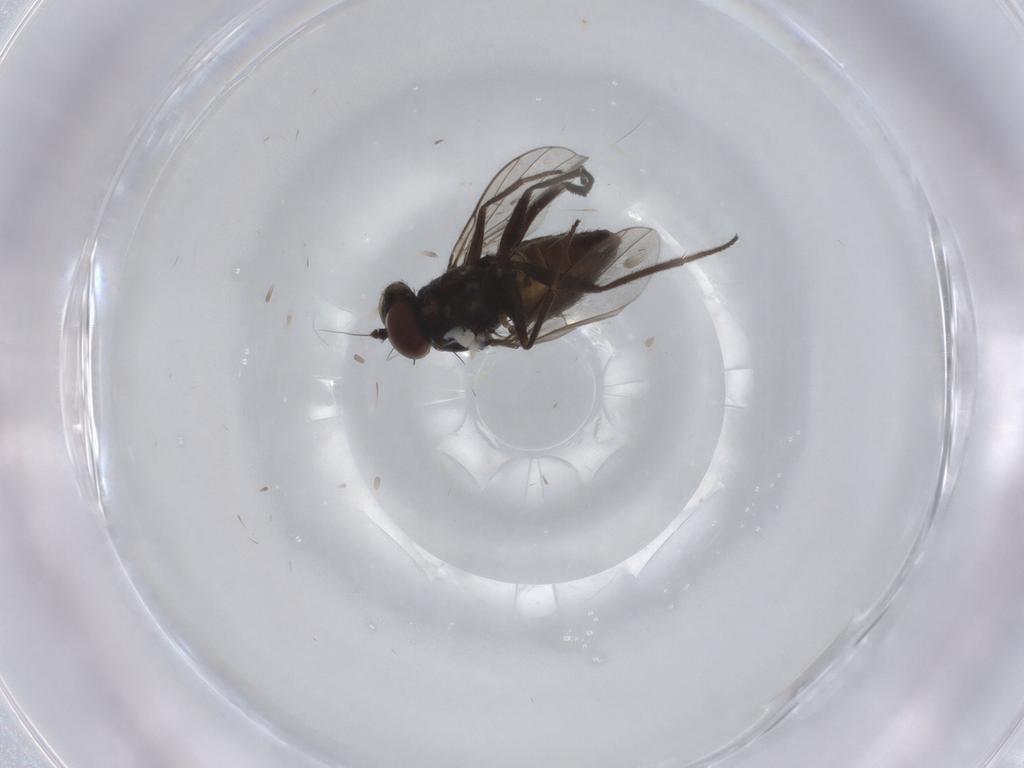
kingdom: Animalia
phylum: Arthropoda
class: Insecta
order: Diptera
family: Dolichopodidae
